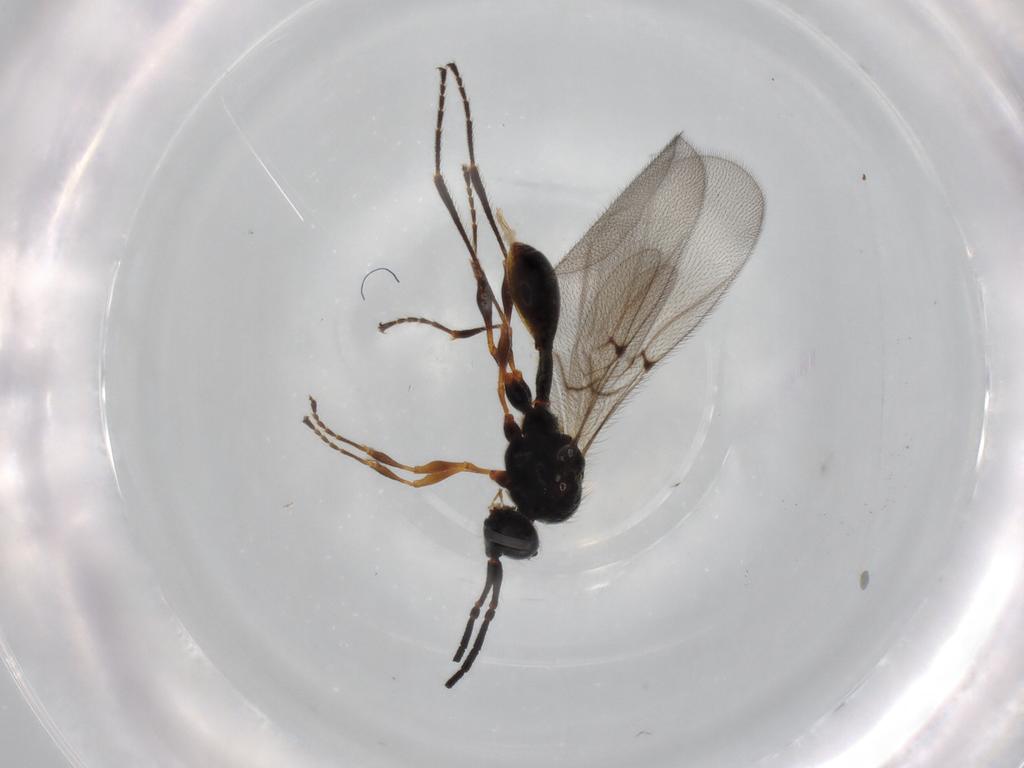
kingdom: Animalia
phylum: Arthropoda
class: Insecta
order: Hymenoptera
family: Diapriidae
